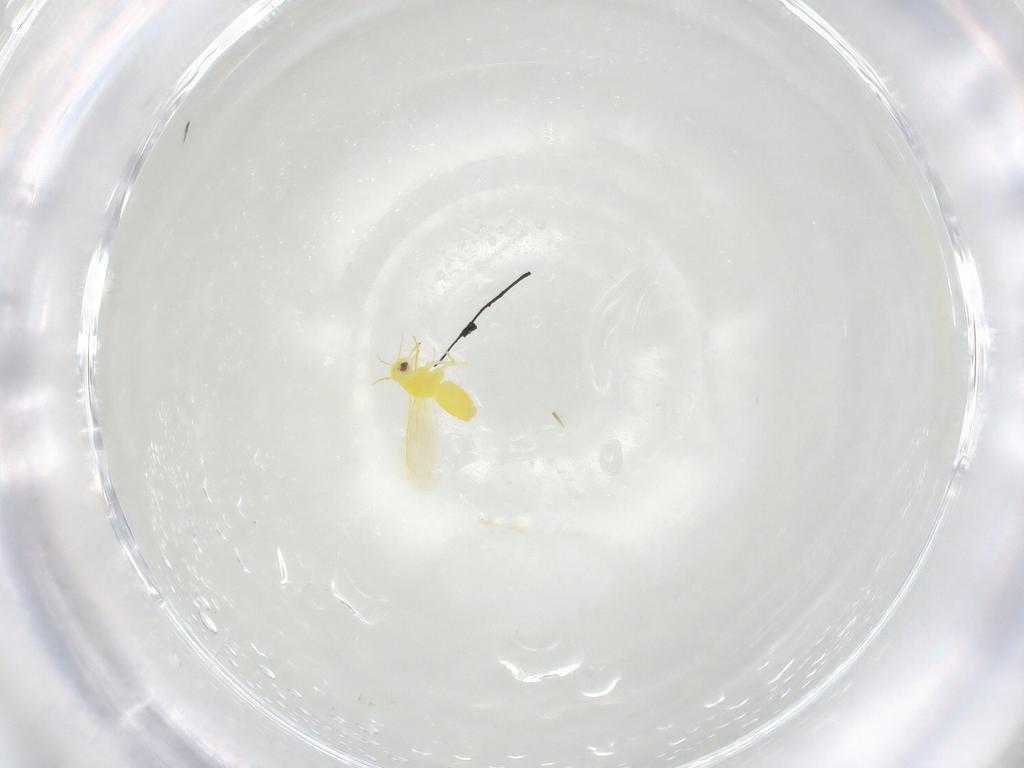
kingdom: Animalia
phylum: Arthropoda
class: Insecta
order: Hemiptera
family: Aleyrodidae
